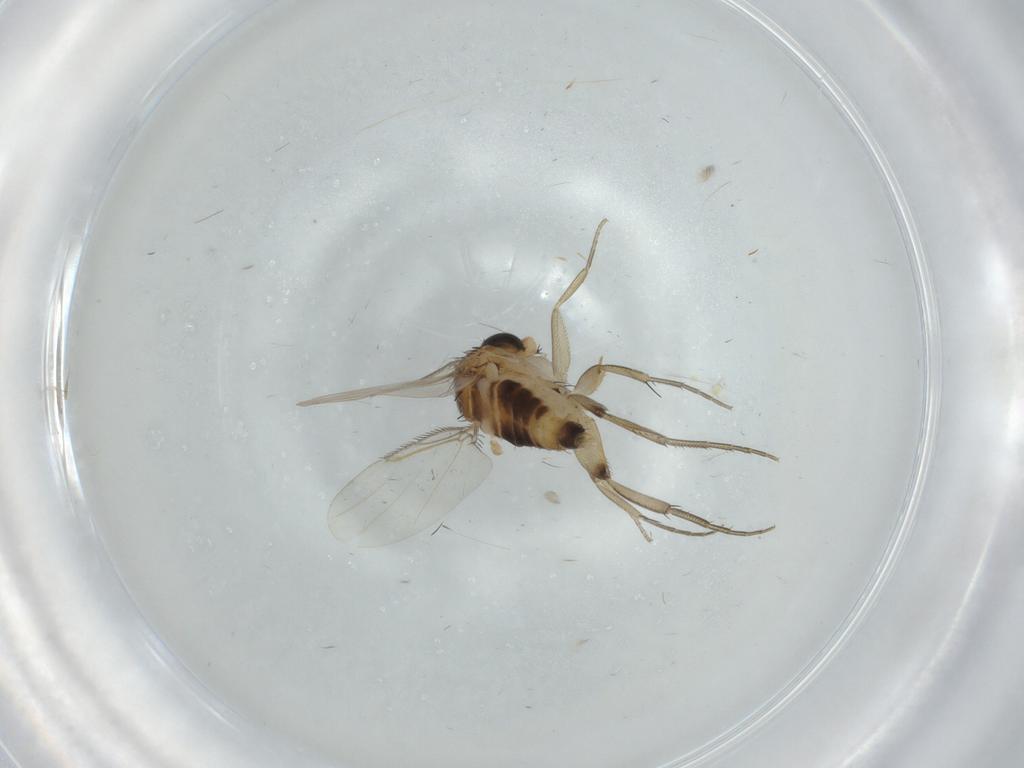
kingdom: Animalia
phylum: Arthropoda
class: Insecta
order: Diptera
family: Phoridae
